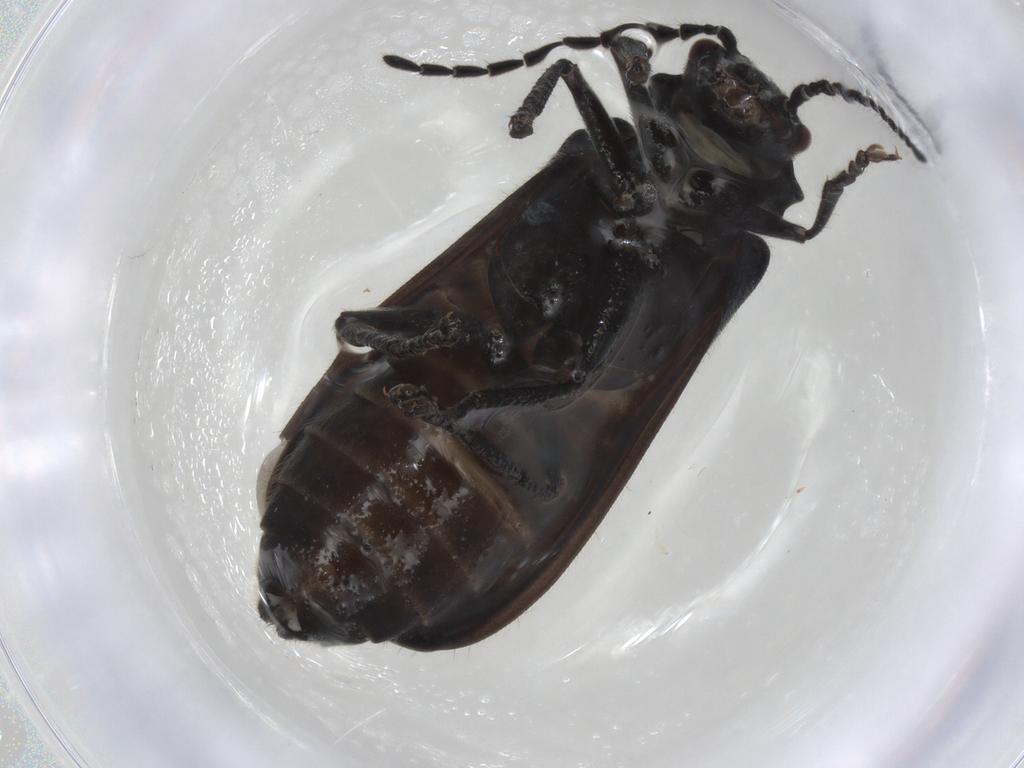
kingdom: Animalia
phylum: Arthropoda
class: Insecta
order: Coleoptera
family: Cantharidae
